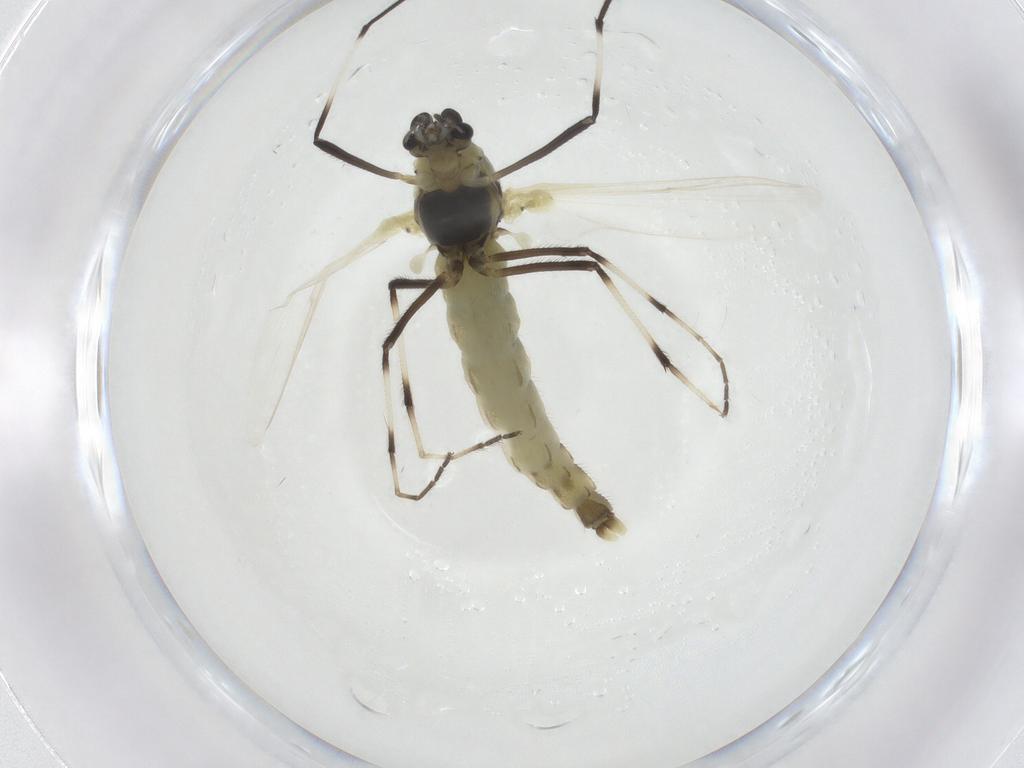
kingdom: Animalia
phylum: Arthropoda
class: Insecta
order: Diptera
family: Chironomidae
